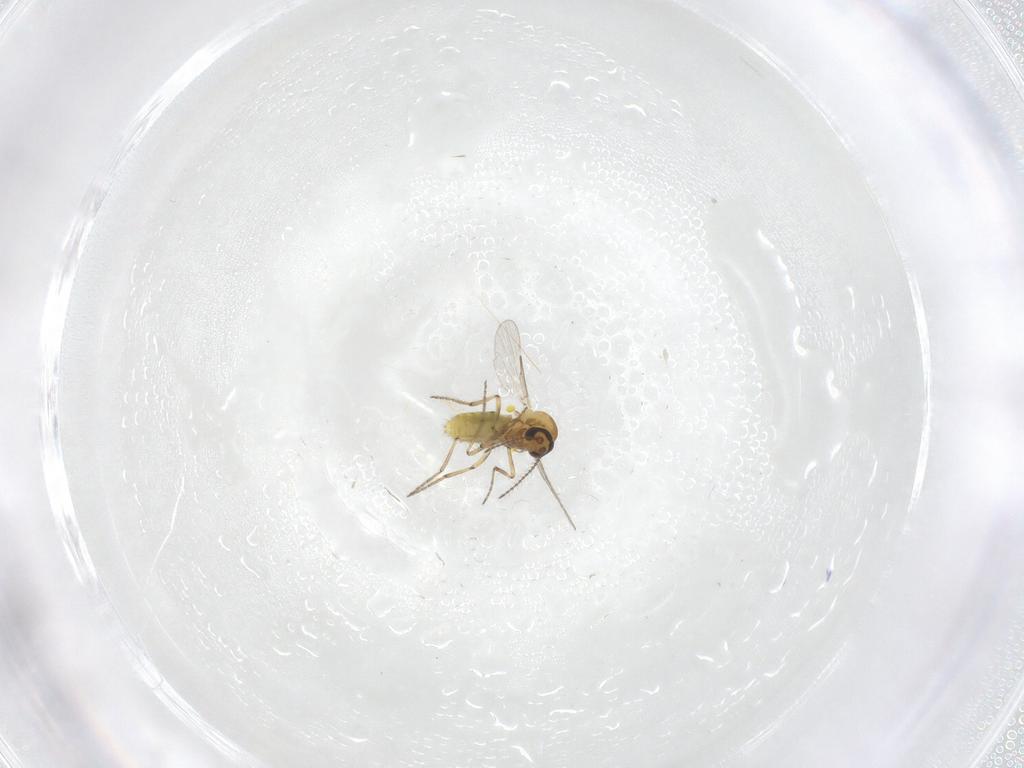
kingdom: Animalia
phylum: Arthropoda
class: Insecta
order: Diptera
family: Ceratopogonidae
